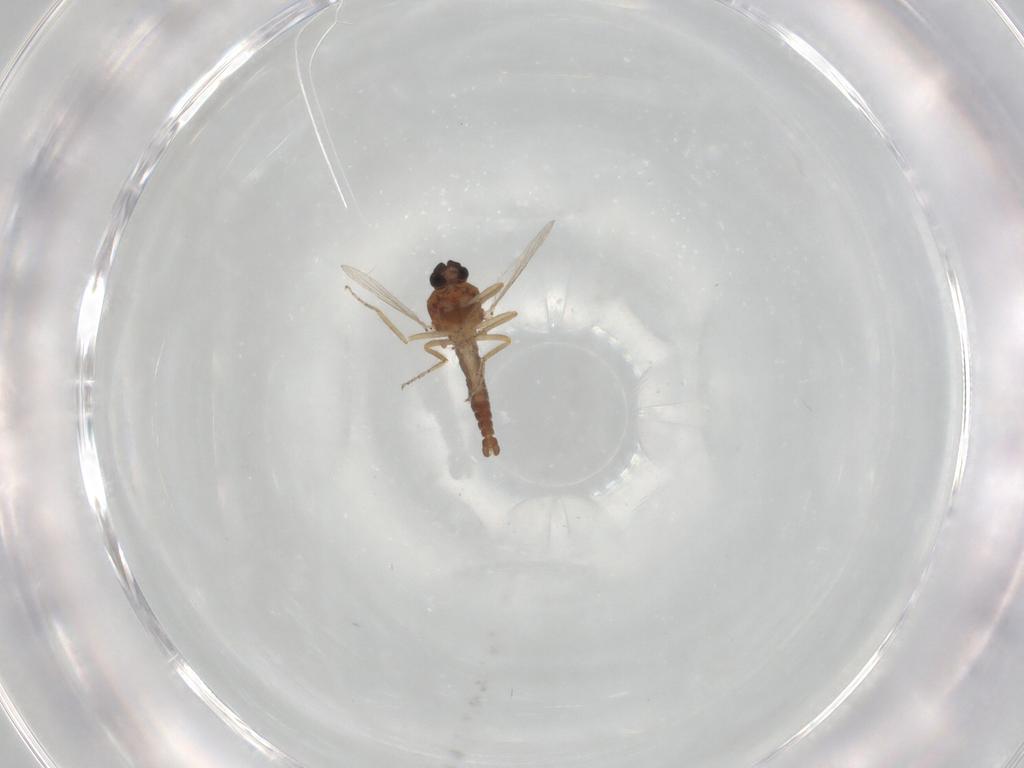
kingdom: Animalia
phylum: Arthropoda
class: Insecta
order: Diptera
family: Ceratopogonidae
